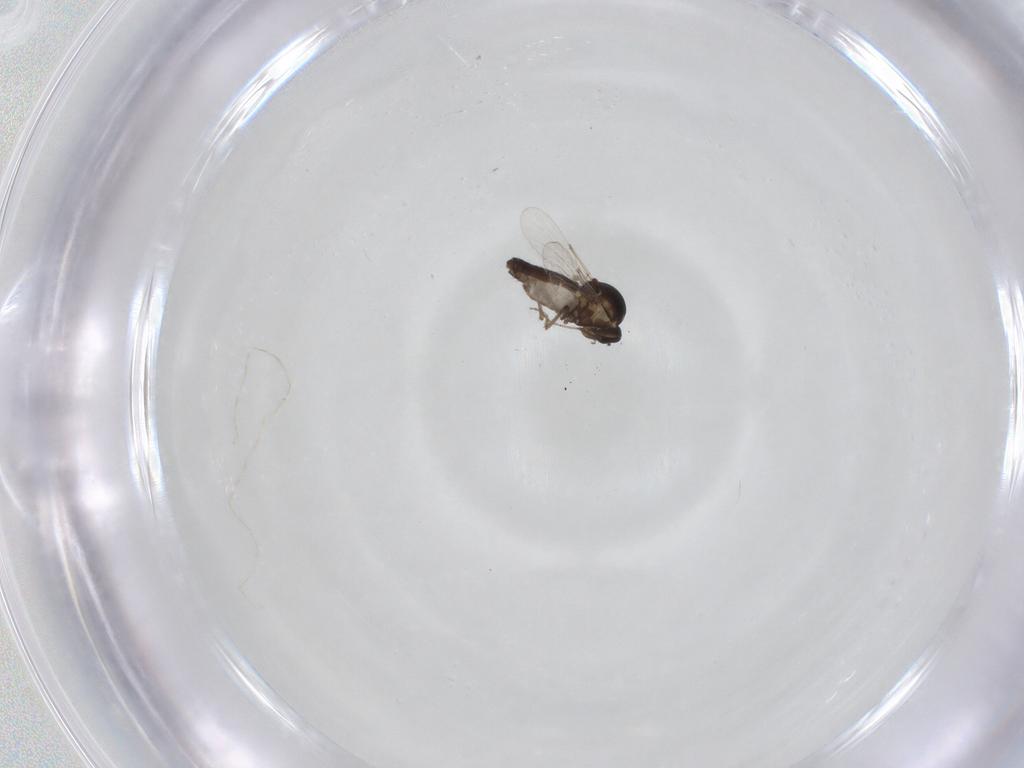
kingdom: Animalia
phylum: Arthropoda
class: Insecta
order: Diptera
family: Ceratopogonidae
